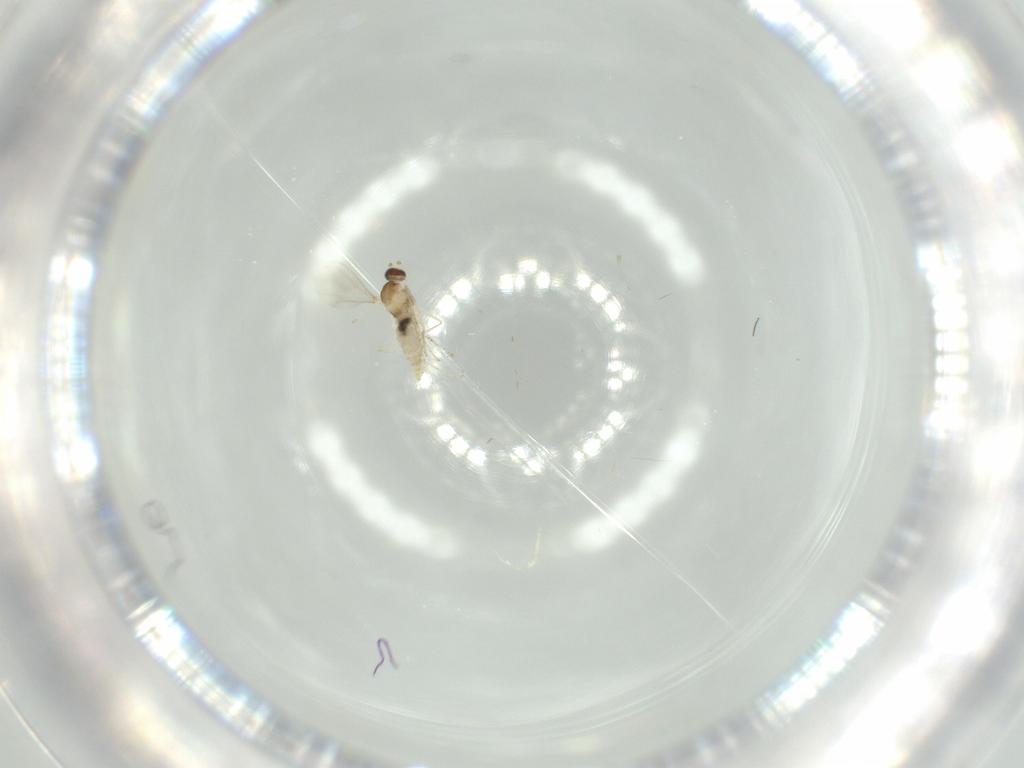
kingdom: Animalia
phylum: Arthropoda
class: Insecta
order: Diptera
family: Cecidomyiidae
